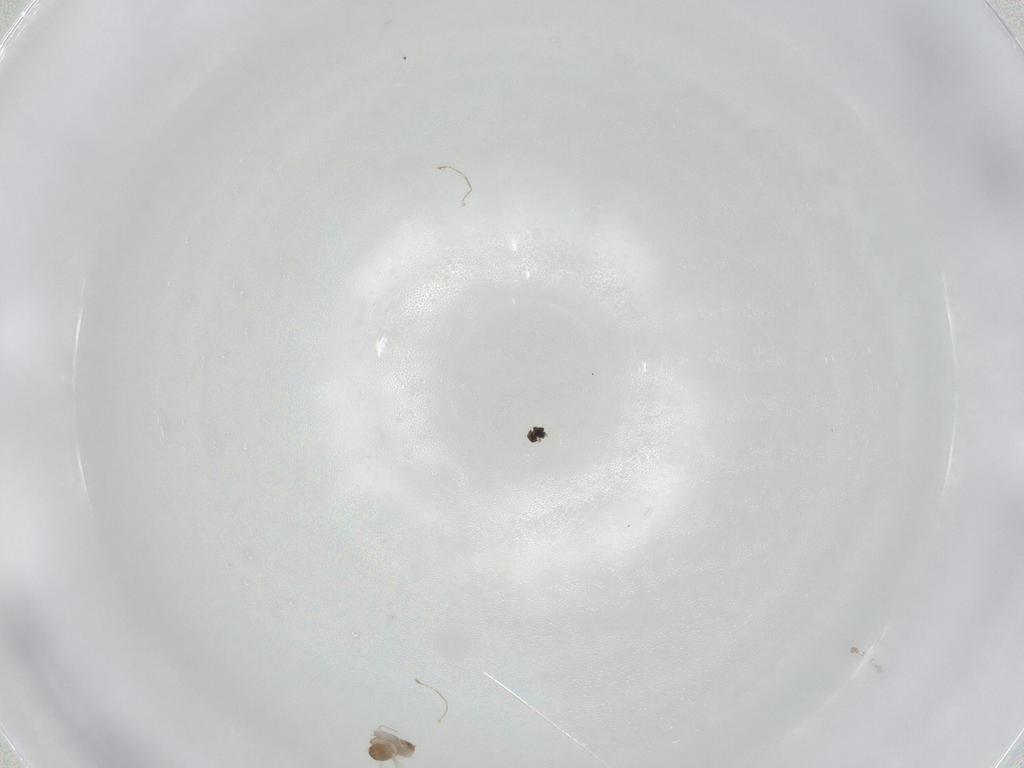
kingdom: Animalia
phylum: Arthropoda
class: Insecta
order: Diptera
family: Cecidomyiidae
